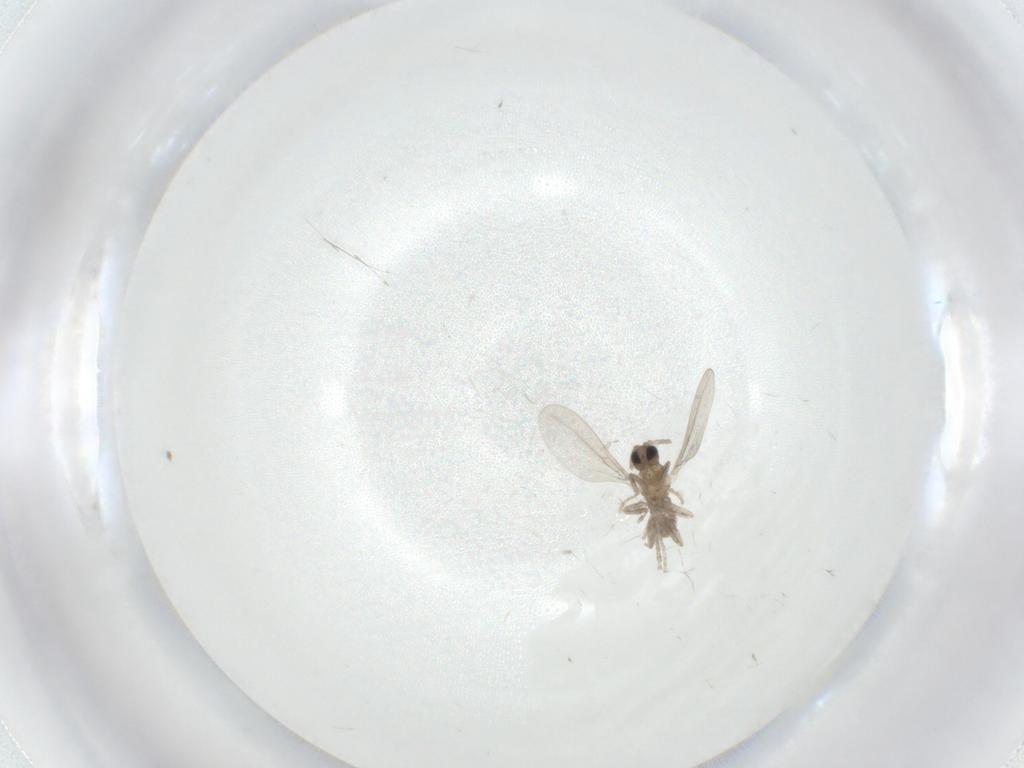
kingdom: Animalia
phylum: Arthropoda
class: Insecta
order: Diptera
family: Cecidomyiidae
